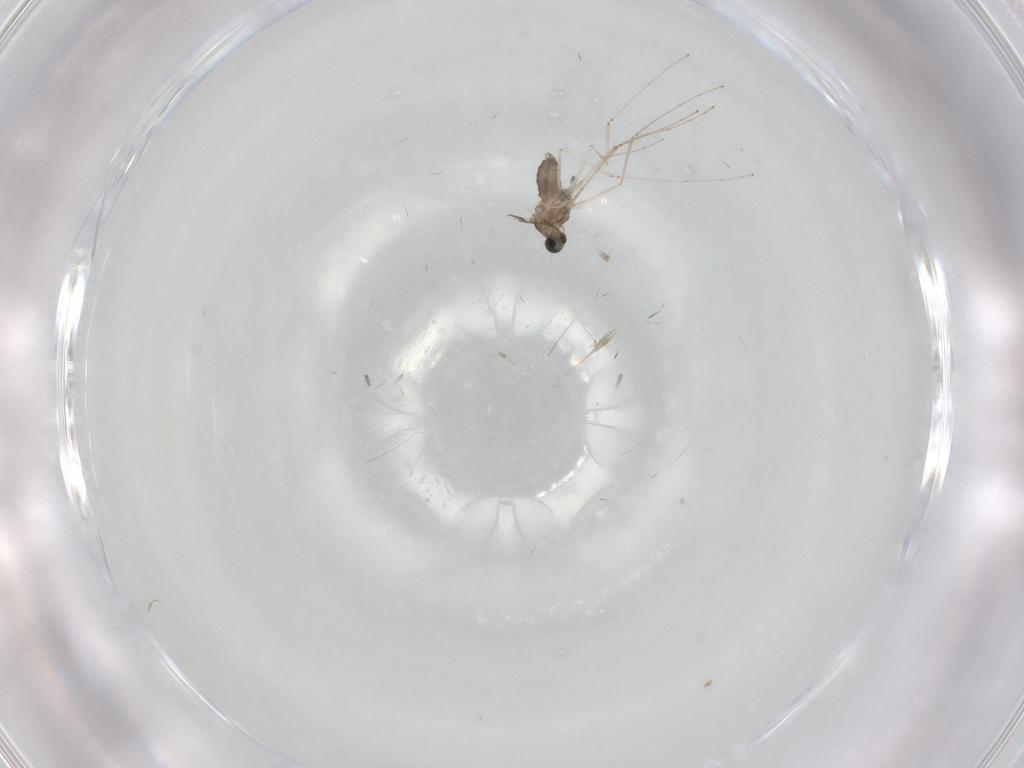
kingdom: Animalia
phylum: Arthropoda
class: Insecta
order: Diptera
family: Cecidomyiidae
